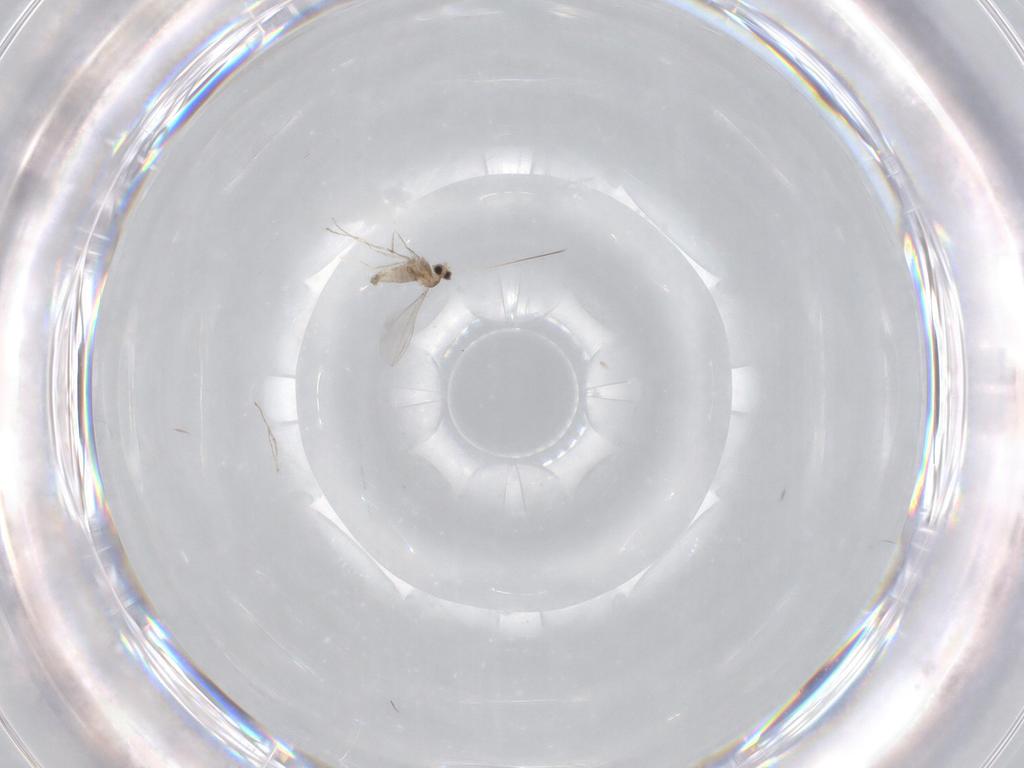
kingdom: Animalia
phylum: Arthropoda
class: Insecta
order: Diptera
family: Cecidomyiidae
